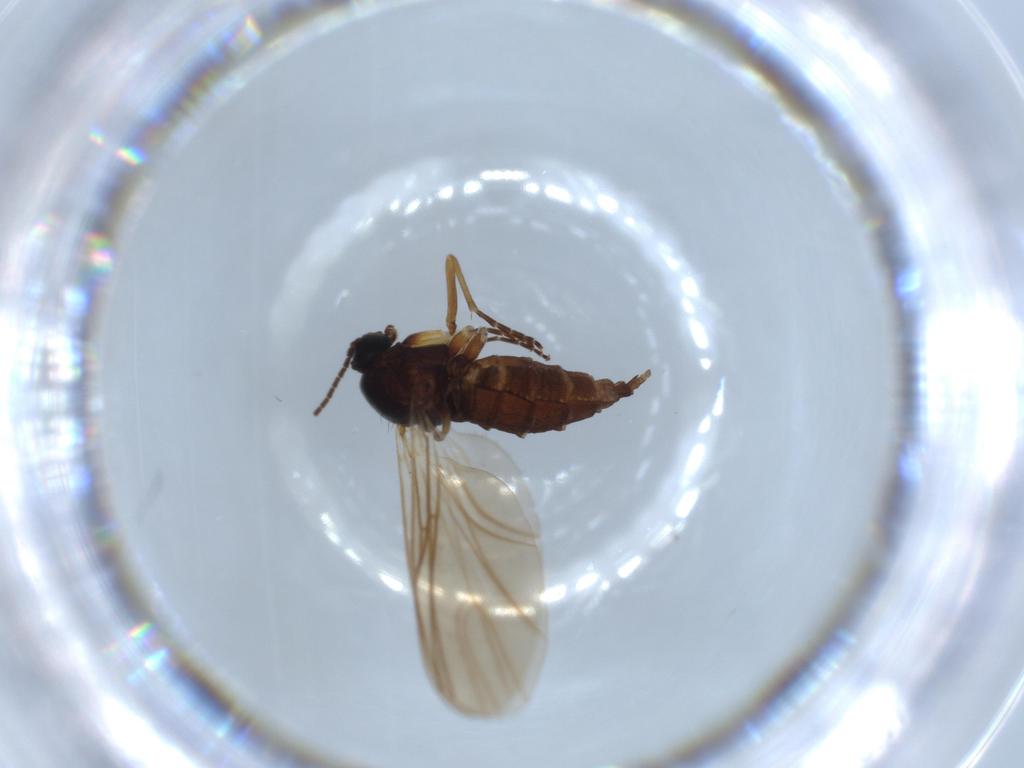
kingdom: Animalia
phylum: Arthropoda
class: Insecta
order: Diptera
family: Sciaridae
